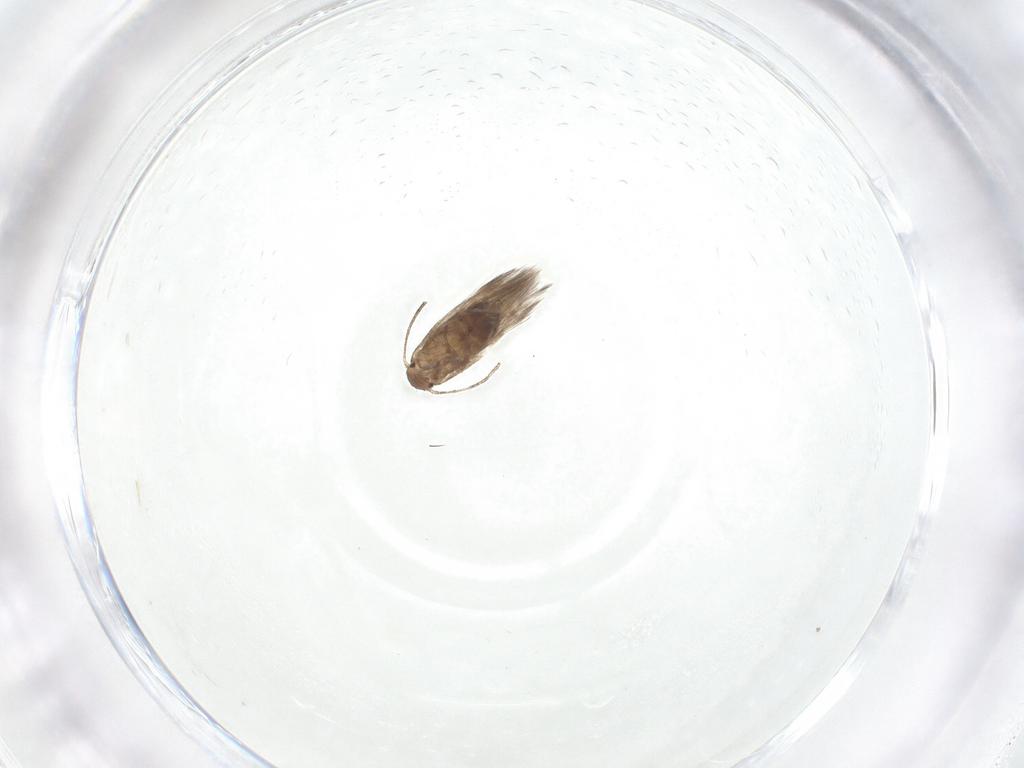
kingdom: Animalia
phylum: Arthropoda
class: Insecta
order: Lepidoptera
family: Lyonetiidae
